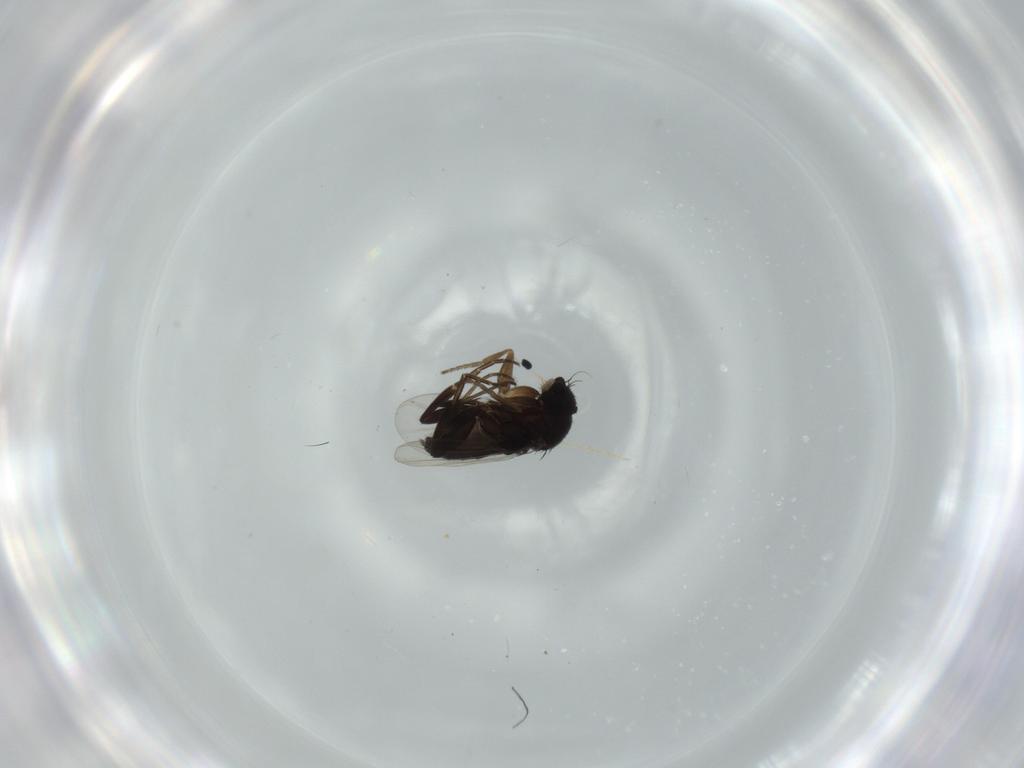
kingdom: Animalia
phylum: Arthropoda
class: Insecta
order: Diptera
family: Phoridae
